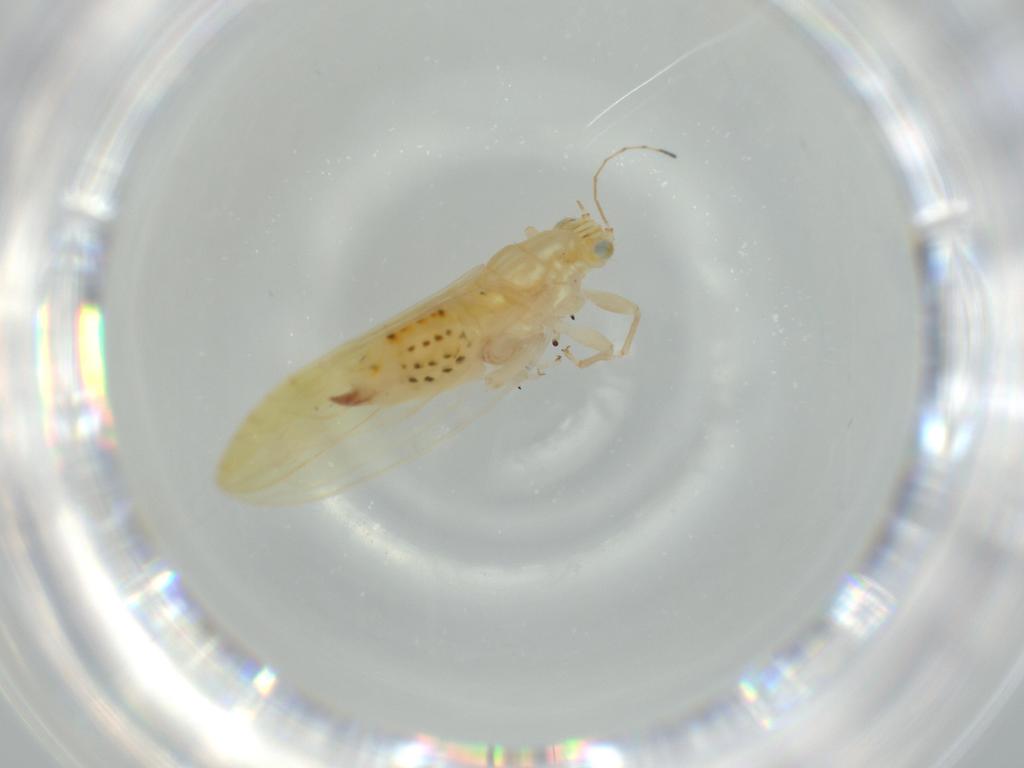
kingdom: Animalia
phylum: Arthropoda
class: Insecta
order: Hemiptera
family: Triozidae
